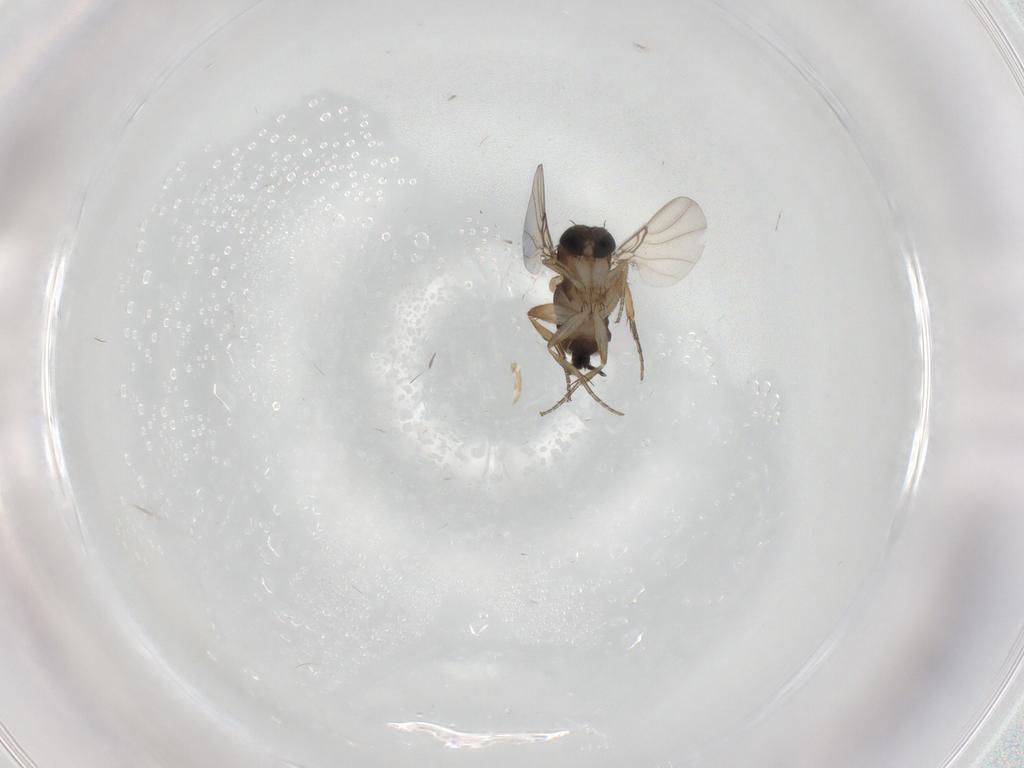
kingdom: Animalia
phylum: Arthropoda
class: Insecta
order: Diptera
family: Phoridae
